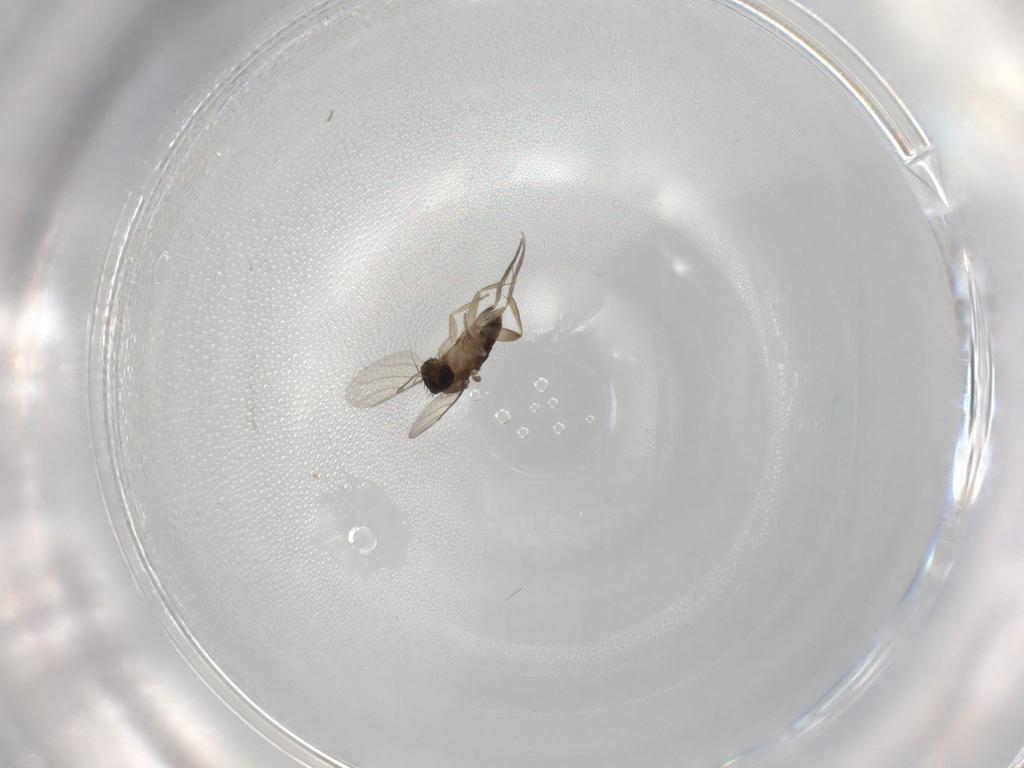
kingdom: Animalia
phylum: Arthropoda
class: Insecta
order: Diptera
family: Phoridae
